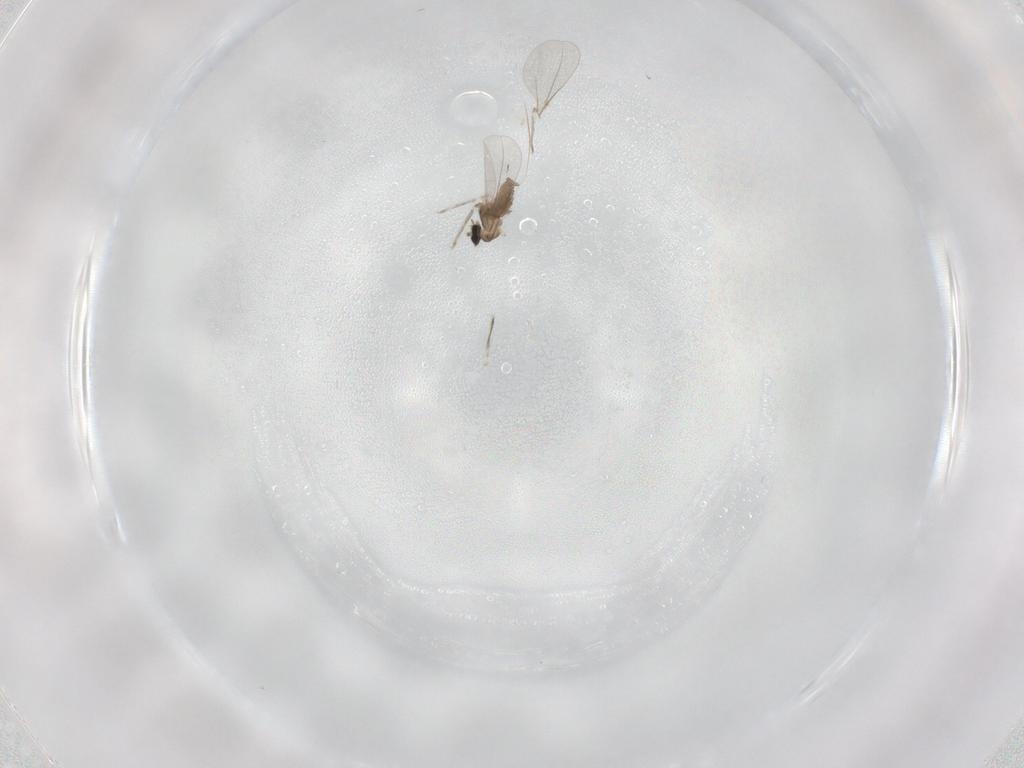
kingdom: Animalia
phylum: Arthropoda
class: Insecta
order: Diptera
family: Cecidomyiidae
